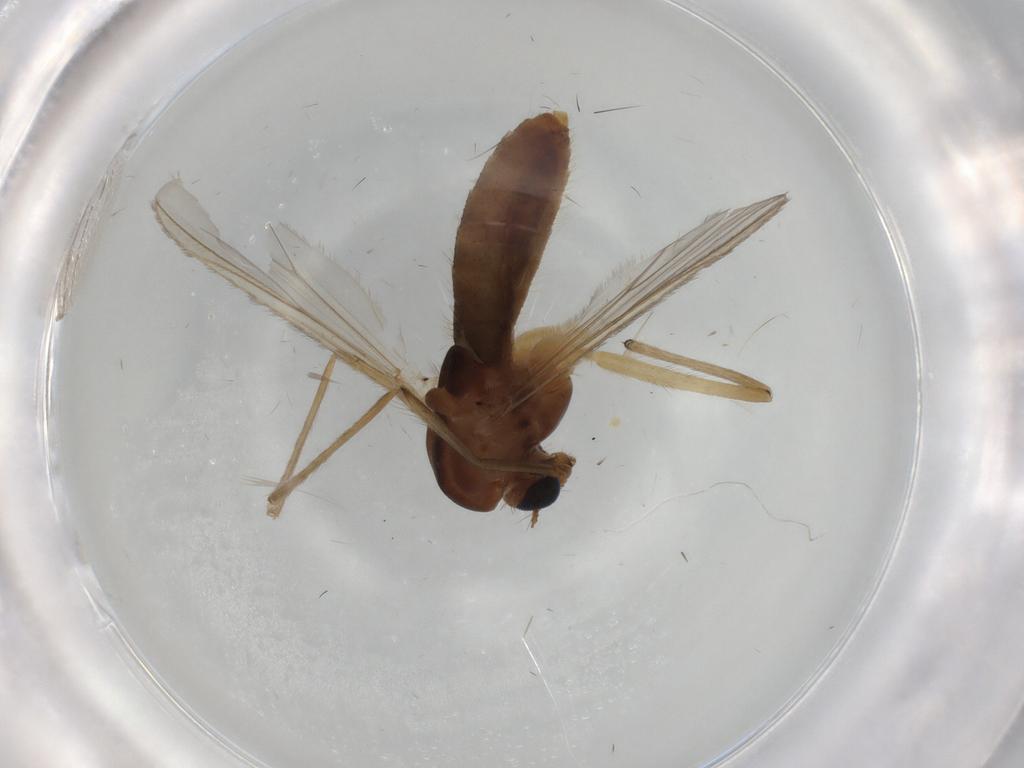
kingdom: Animalia
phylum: Arthropoda
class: Insecta
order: Diptera
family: Chironomidae
